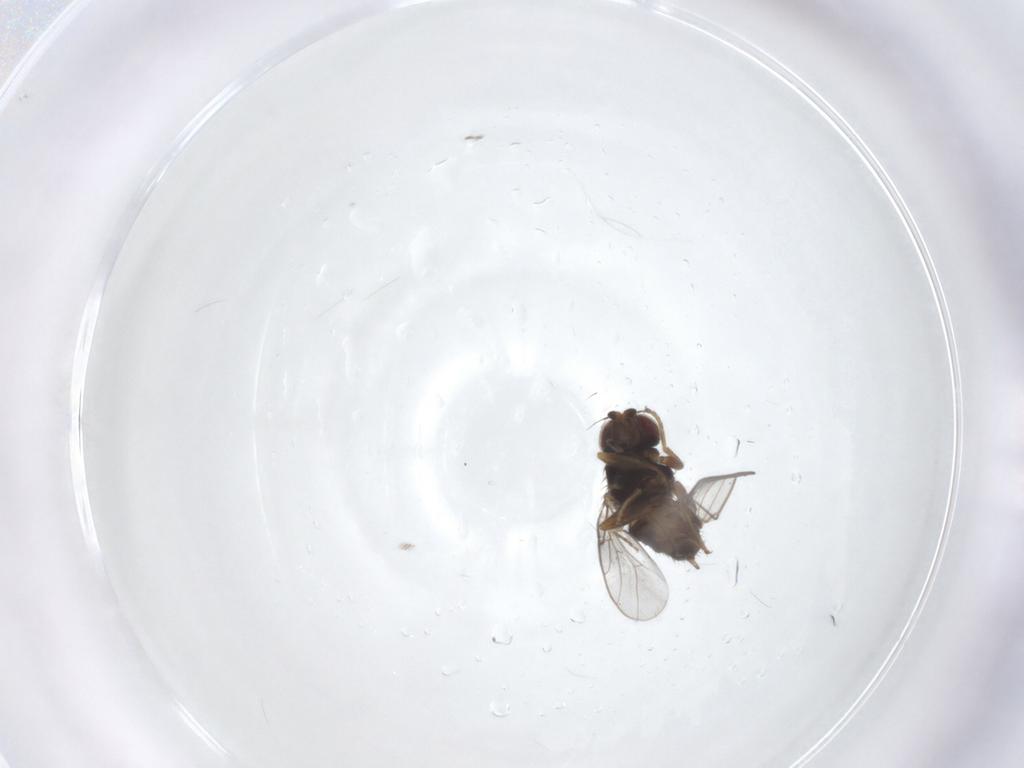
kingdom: Animalia
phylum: Arthropoda
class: Insecta
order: Diptera
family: Chloropidae
